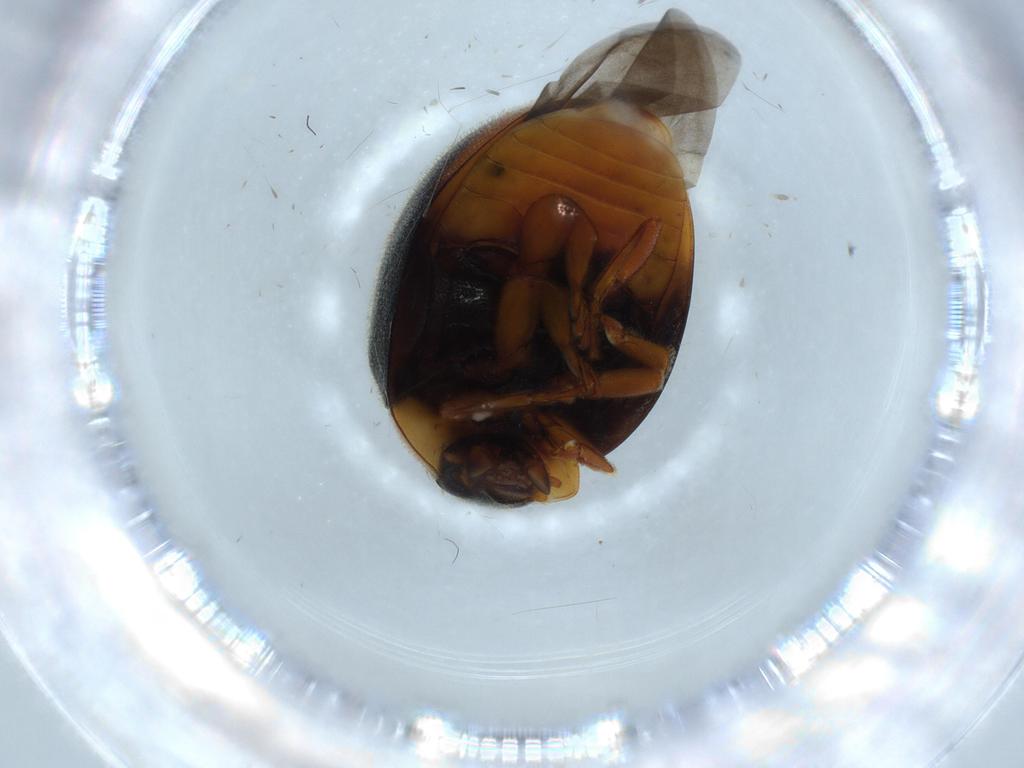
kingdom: Animalia
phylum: Arthropoda
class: Insecta
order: Coleoptera
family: Coccinellidae
